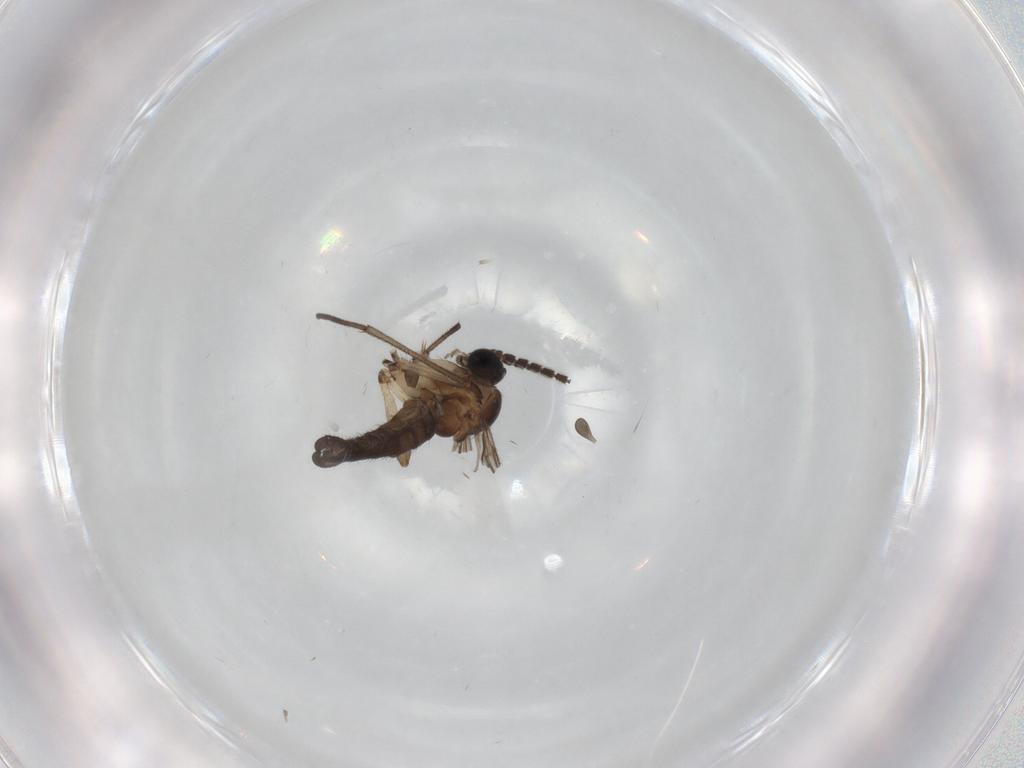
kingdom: Animalia
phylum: Arthropoda
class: Insecta
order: Diptera
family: Sciaridae
